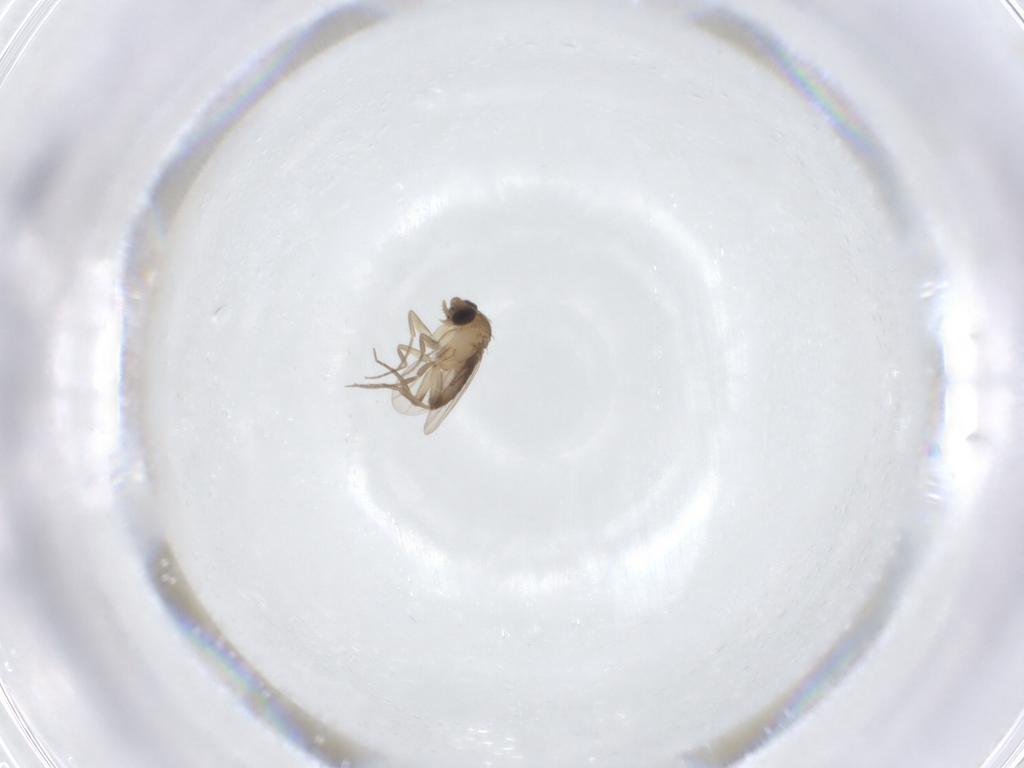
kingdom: Animalia
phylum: Arthropoda
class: Insecta
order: Diptera
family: Phoridae
